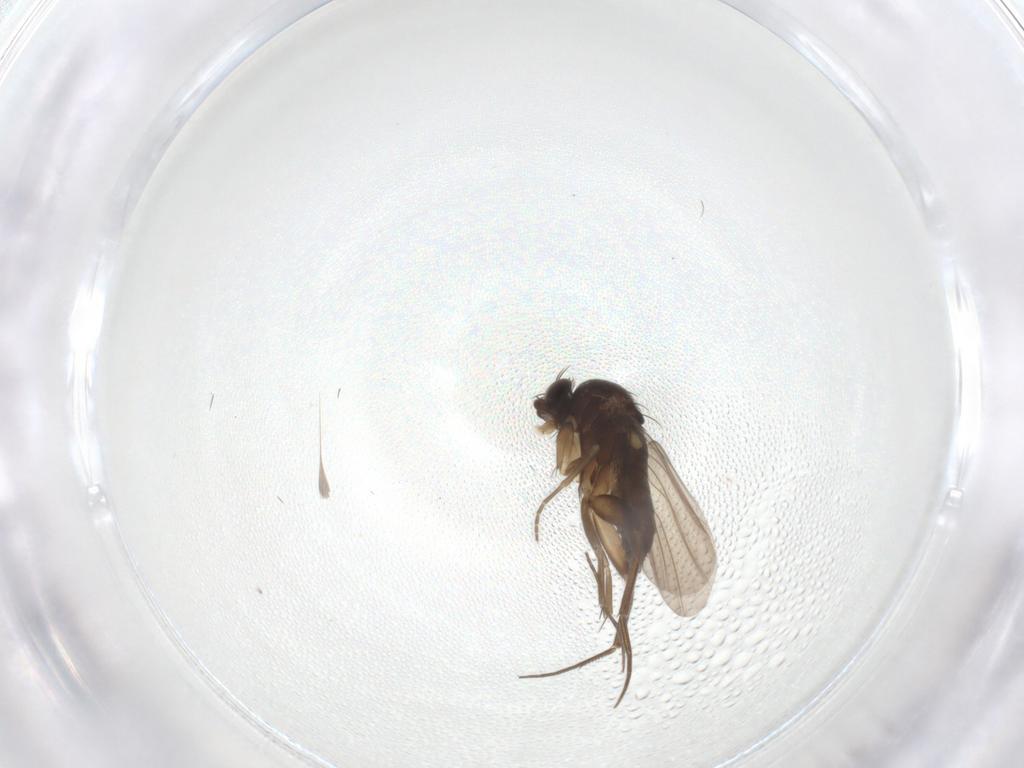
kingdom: Animalia
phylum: Arthropoda
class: Insecta
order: Diptera
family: Phoridae
